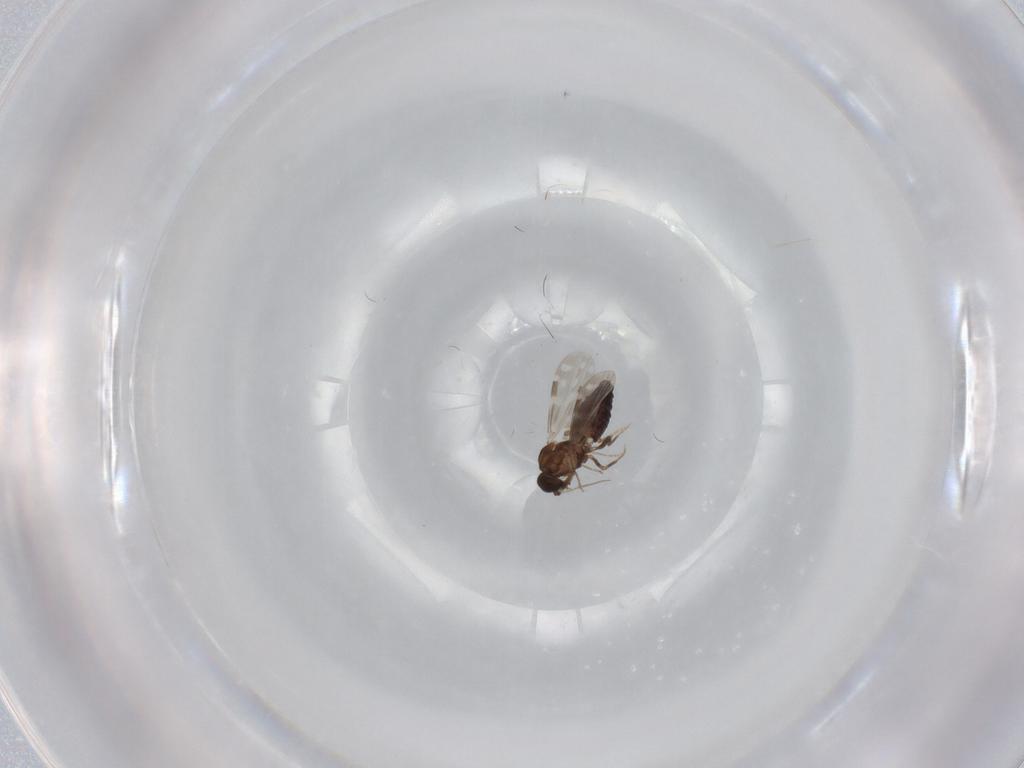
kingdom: Animalia
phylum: Arthropoda
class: Insecta
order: Diptera
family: Ceratopogonidae
